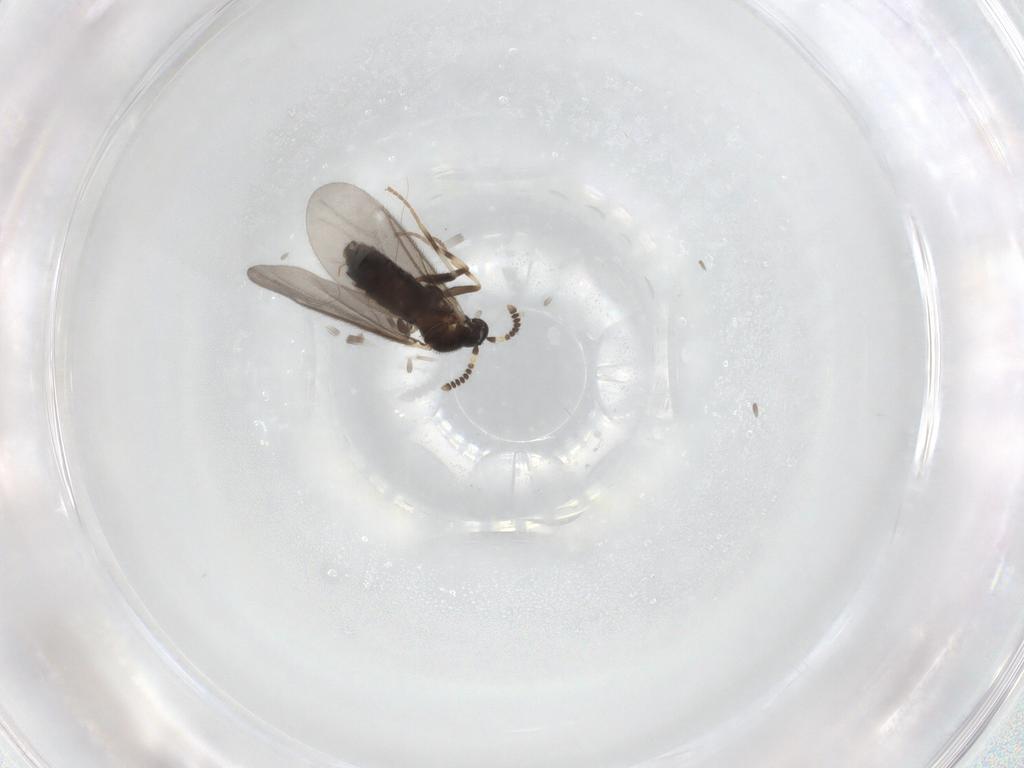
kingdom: Animalia
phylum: Arthropoda
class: Insecta
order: Diptera
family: Scatopsidae
